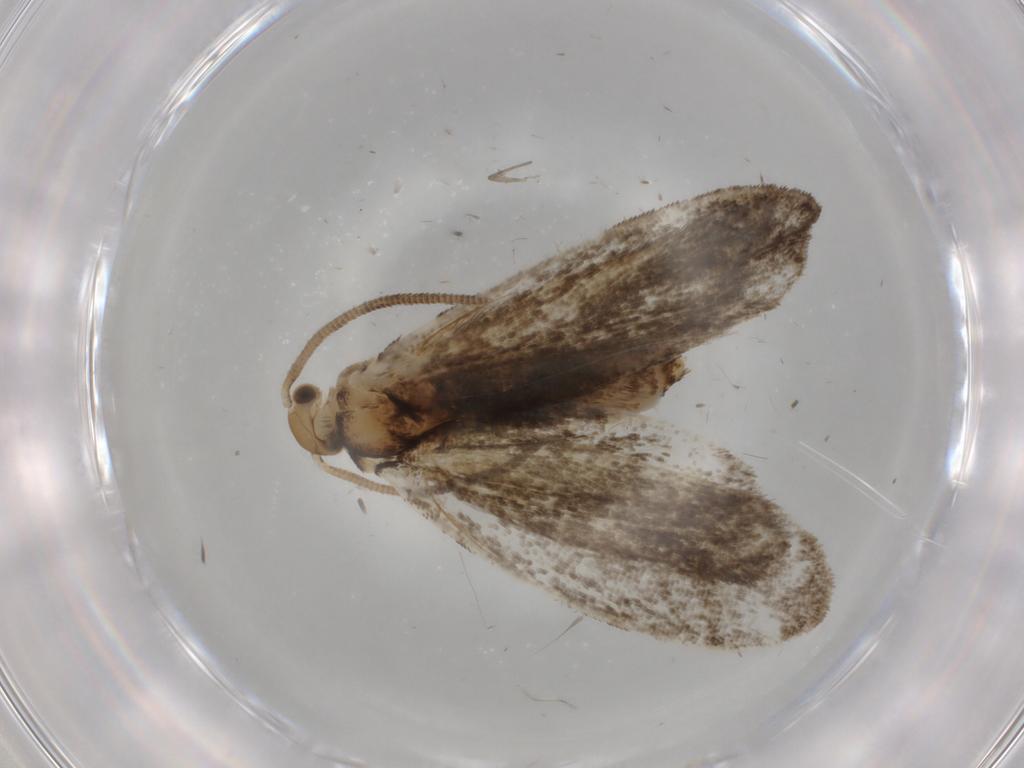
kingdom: Animalia
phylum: Arthropoda
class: Insecta
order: Lepidoptera
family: Dryadaulidae
